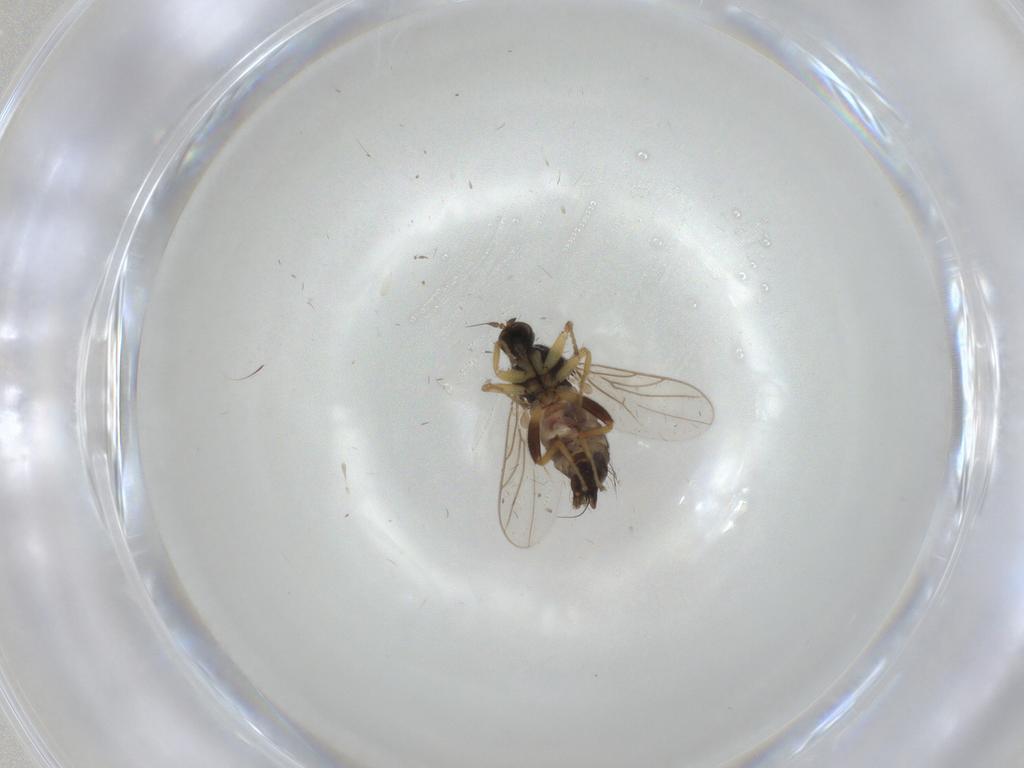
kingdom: Animalia
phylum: Arthropoda
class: Insecta
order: Diptera
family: Hybotidae
